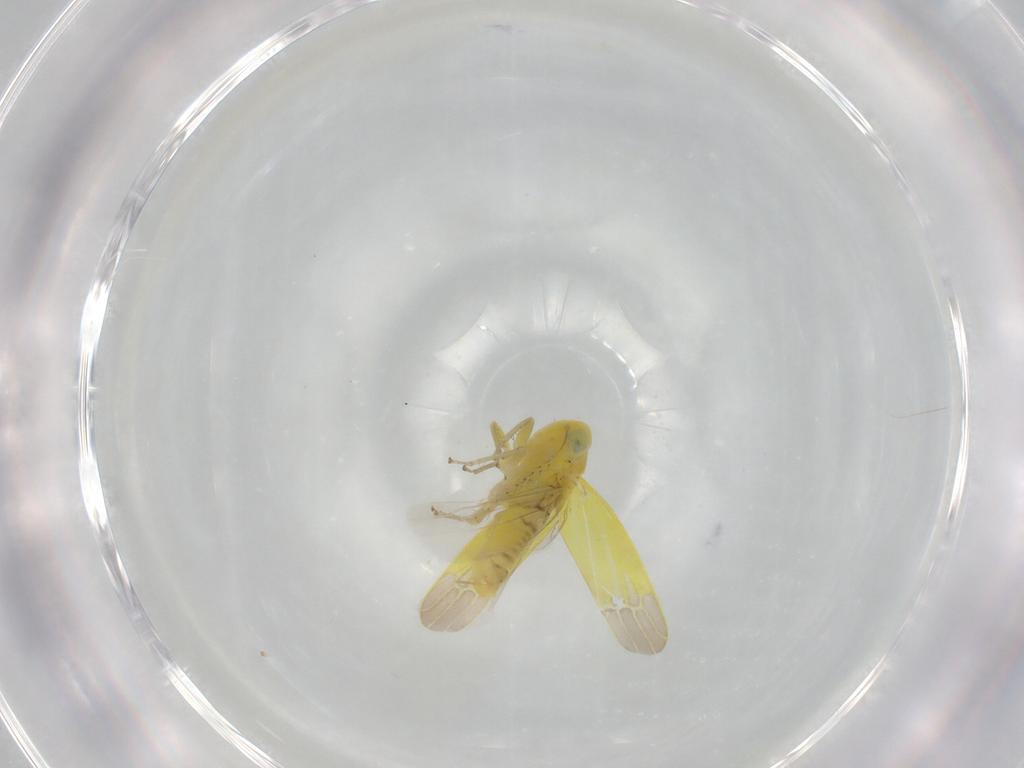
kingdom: Animalia
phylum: Arthropoda
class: Insecta
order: Hemiptera
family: Cicadellidae
